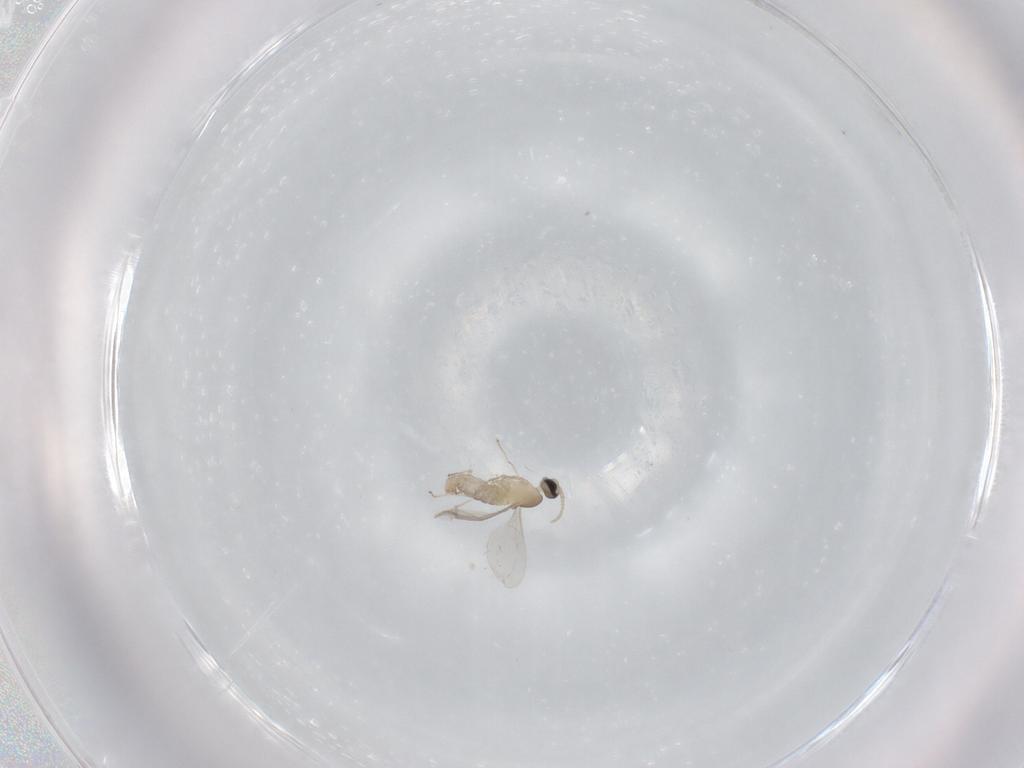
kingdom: Animalia
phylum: Arthropoda
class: Insecta
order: Diptera
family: Cecidomyiidae
